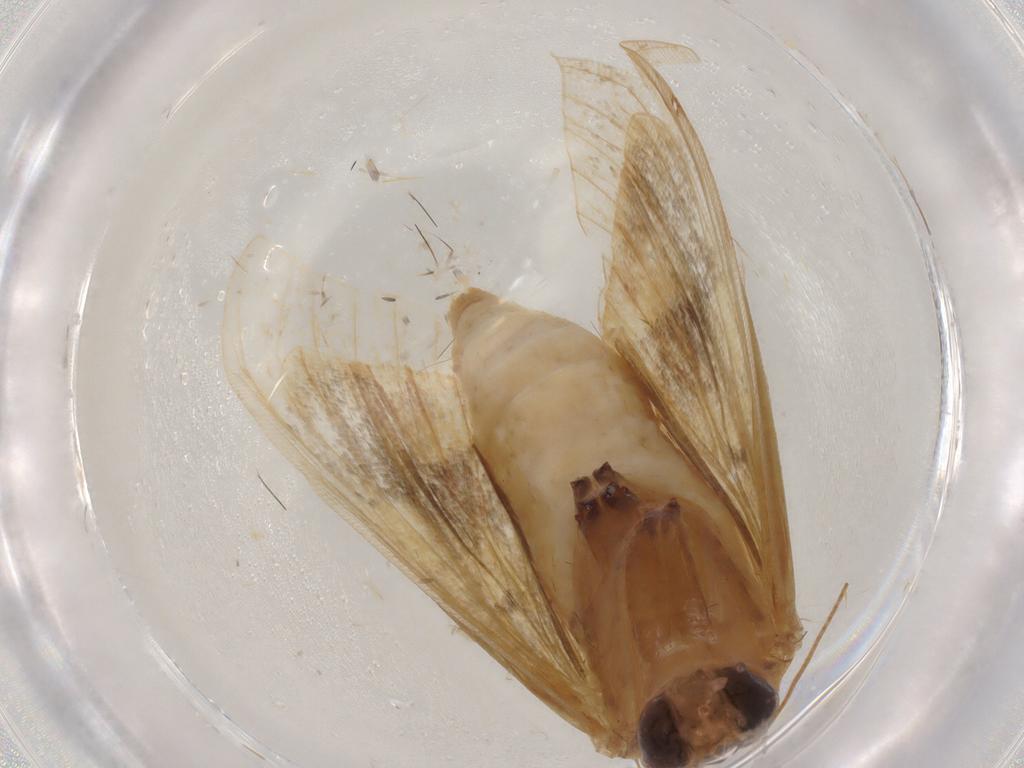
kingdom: Animalia
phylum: Arthropoda
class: Insecta
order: Lepidoptera
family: Crambidae
